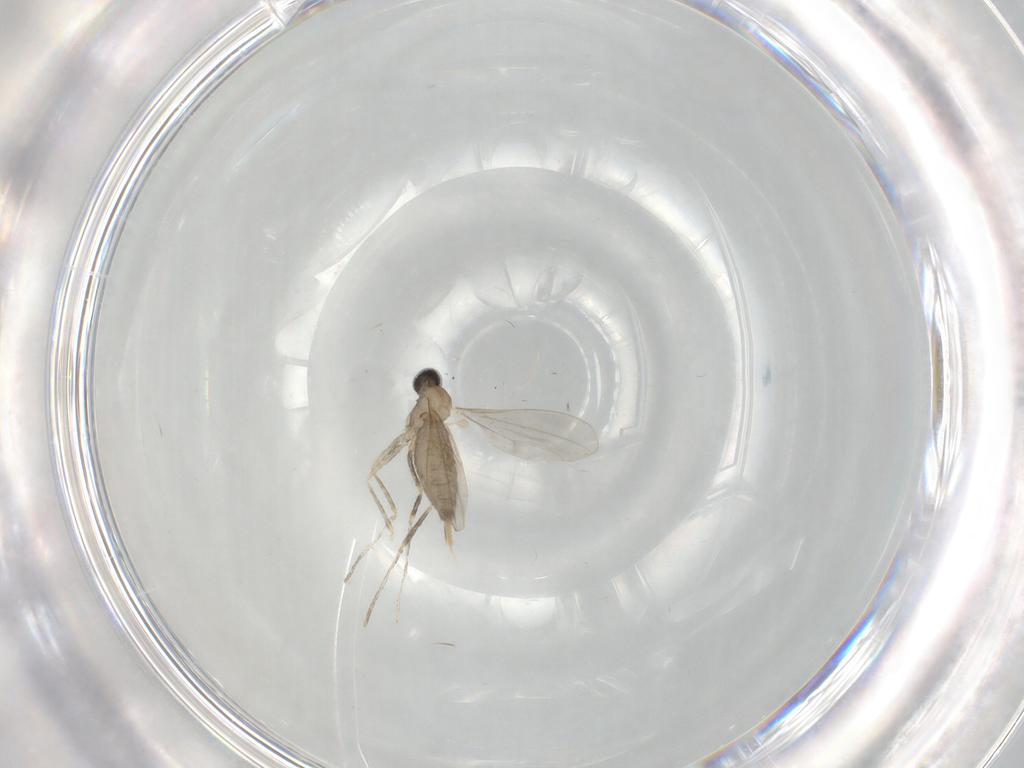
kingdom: Animalia
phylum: Arthropoda
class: Insecta
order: Diptera
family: Cecidomyiidae
